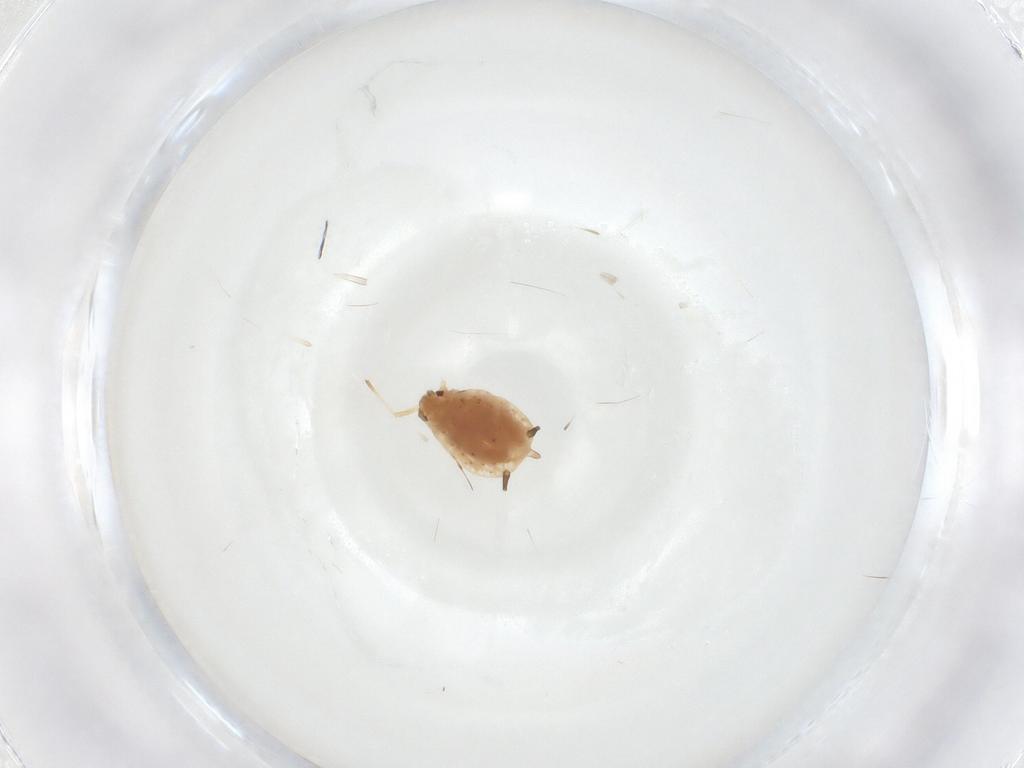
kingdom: Animalia
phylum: Arthropoda
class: Insecta
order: Hemiptera
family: Aphididae
